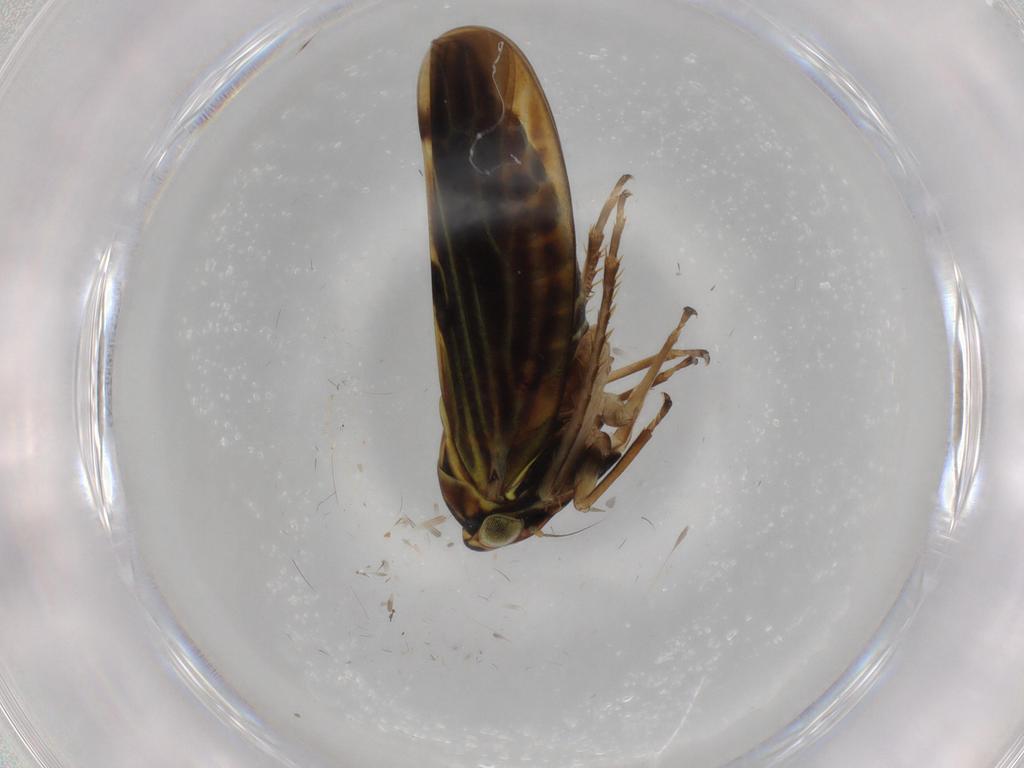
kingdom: Animalia
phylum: Arthropoda
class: Insecta
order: Hemiptera
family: Cicadellidae
